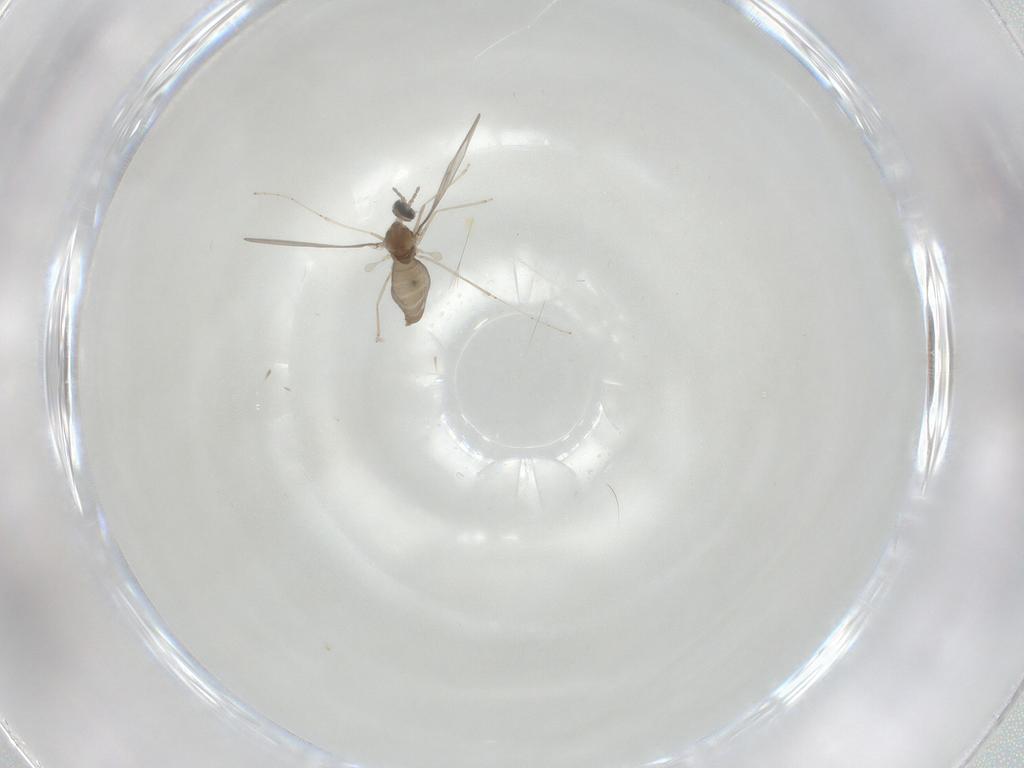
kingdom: Animalia
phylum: Arthropoda
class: Insecta
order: Diptera
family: Cecidomyiidae
